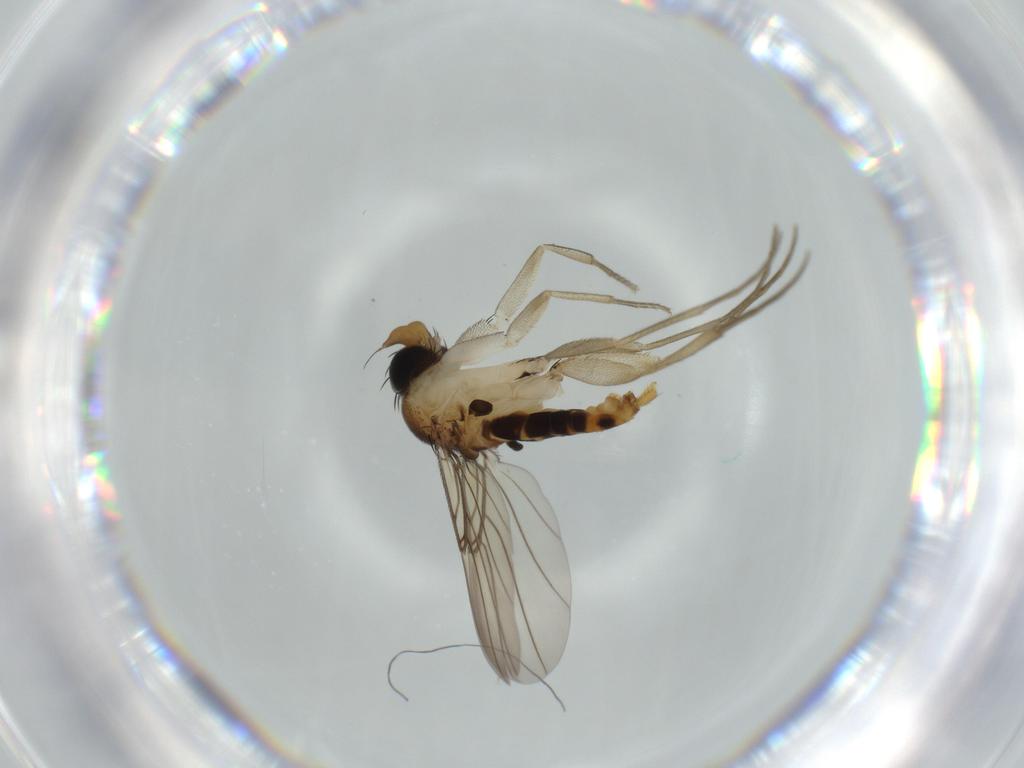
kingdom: Animalia
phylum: Arthropoda
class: Insecta
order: Diptera
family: Phoridae
